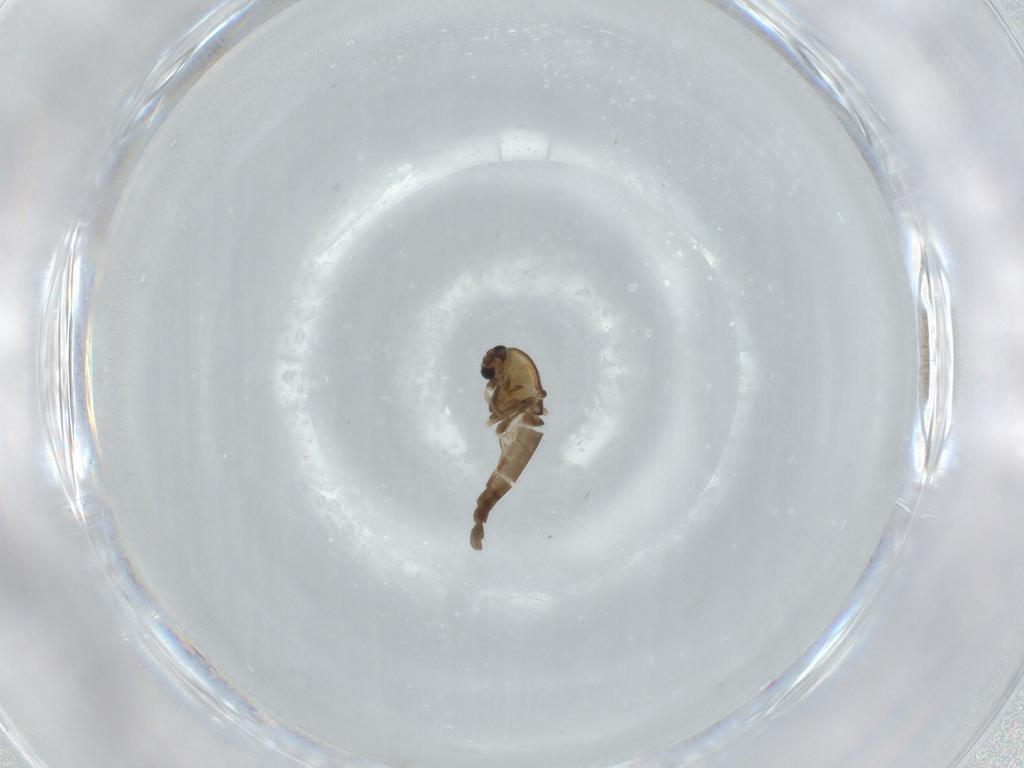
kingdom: Animalia
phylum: Arthropoda
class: Insecta
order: Diptera
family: Chironomidae
